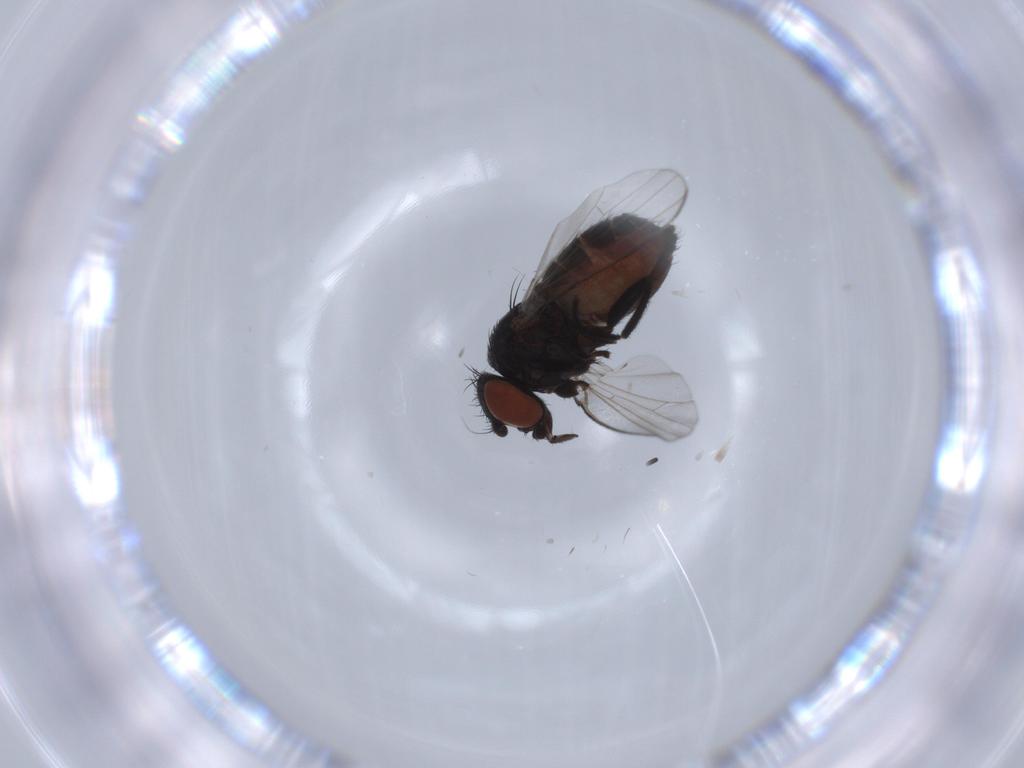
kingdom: Animalia
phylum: Arthropoda
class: Insecta
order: Diptera
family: Milichiidae
